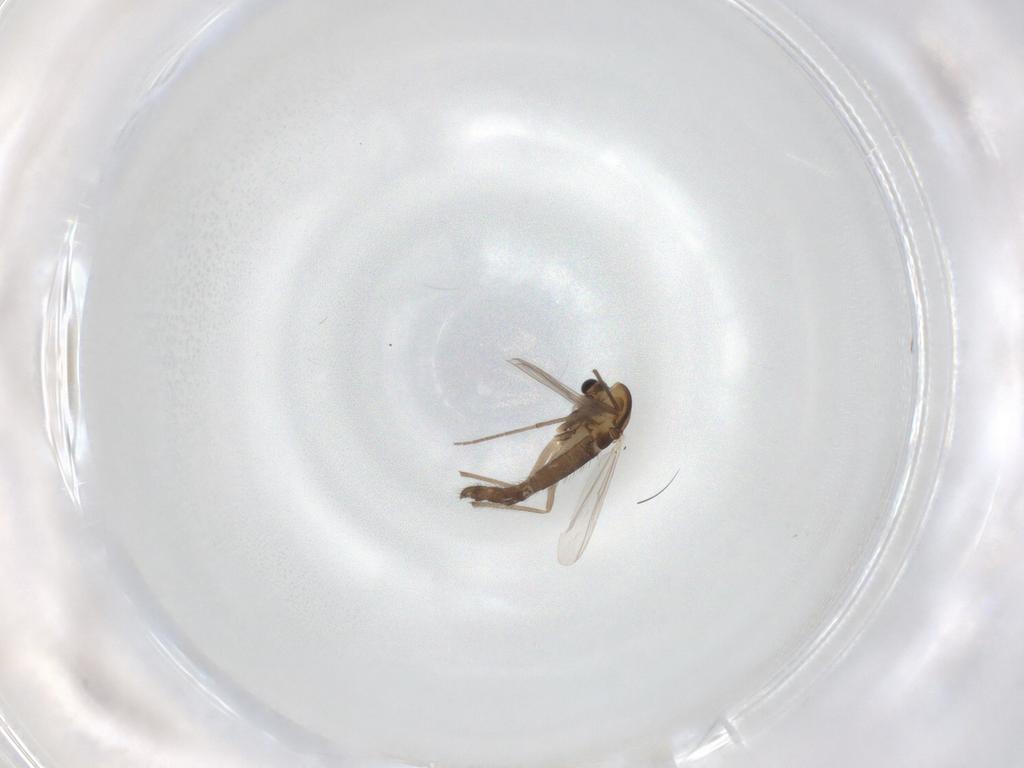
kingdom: Animalia
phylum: Arthropoda
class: Insecta
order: Diptera
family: Chironomidae
